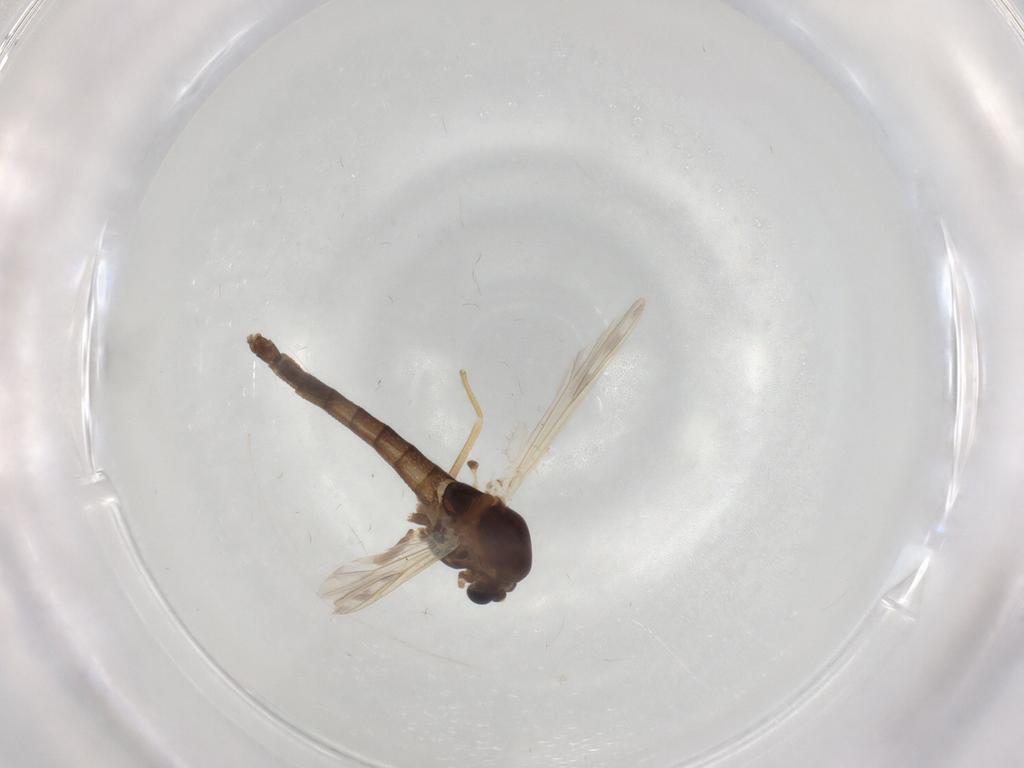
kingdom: Animalia
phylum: Arthropoda
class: Insecta
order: Diptera
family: Chironomidae
